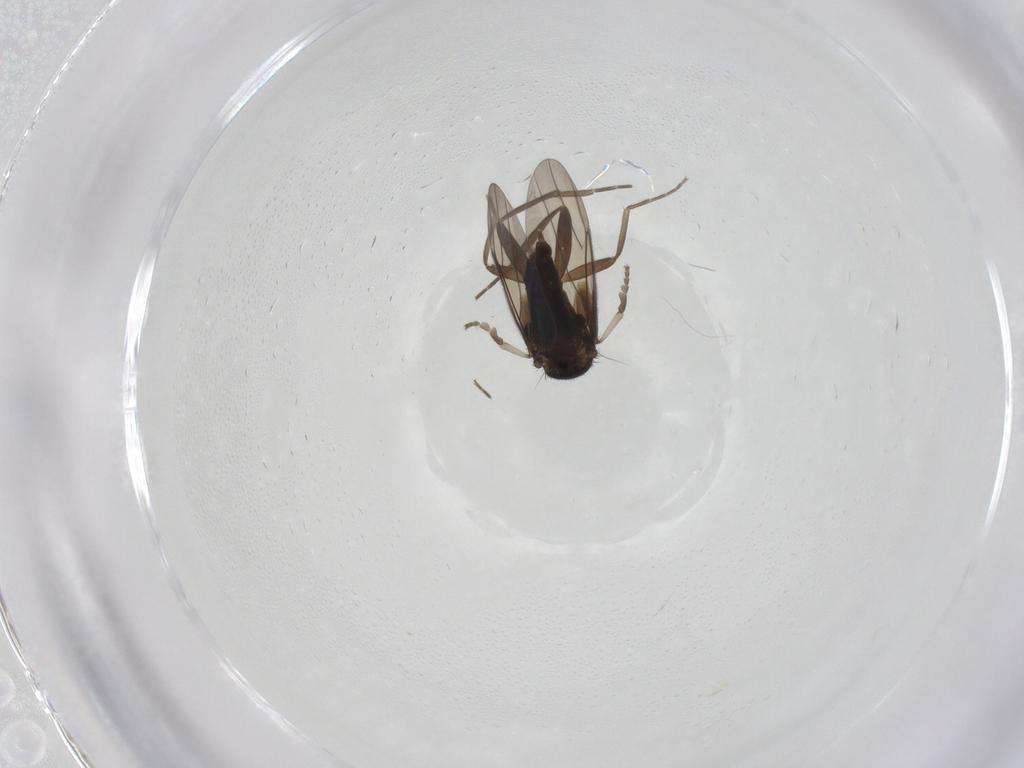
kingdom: Animalia
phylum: Arthropoda
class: Insecta
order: Diptera
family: Phoridae
